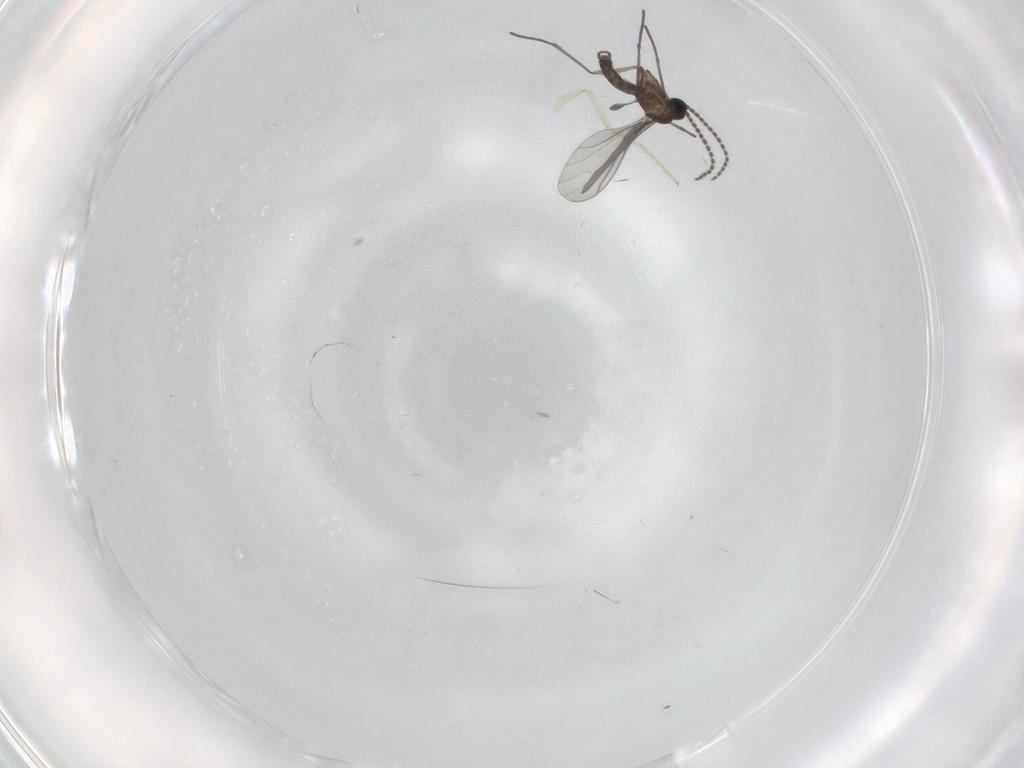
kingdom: Animalia
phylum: Arthropoda
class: Insecta
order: Diptera
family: Cecidomyiidae
